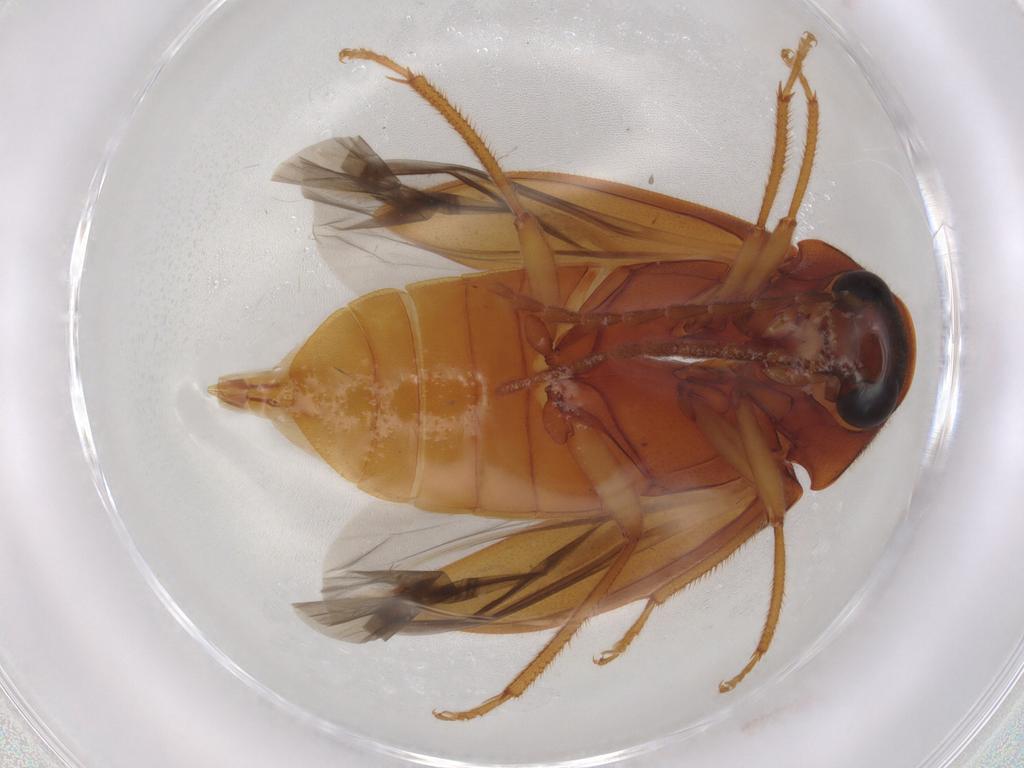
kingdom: Animalia
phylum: Arthropoda
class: Insecta
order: Coleoptera
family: Ptilodactylidae
